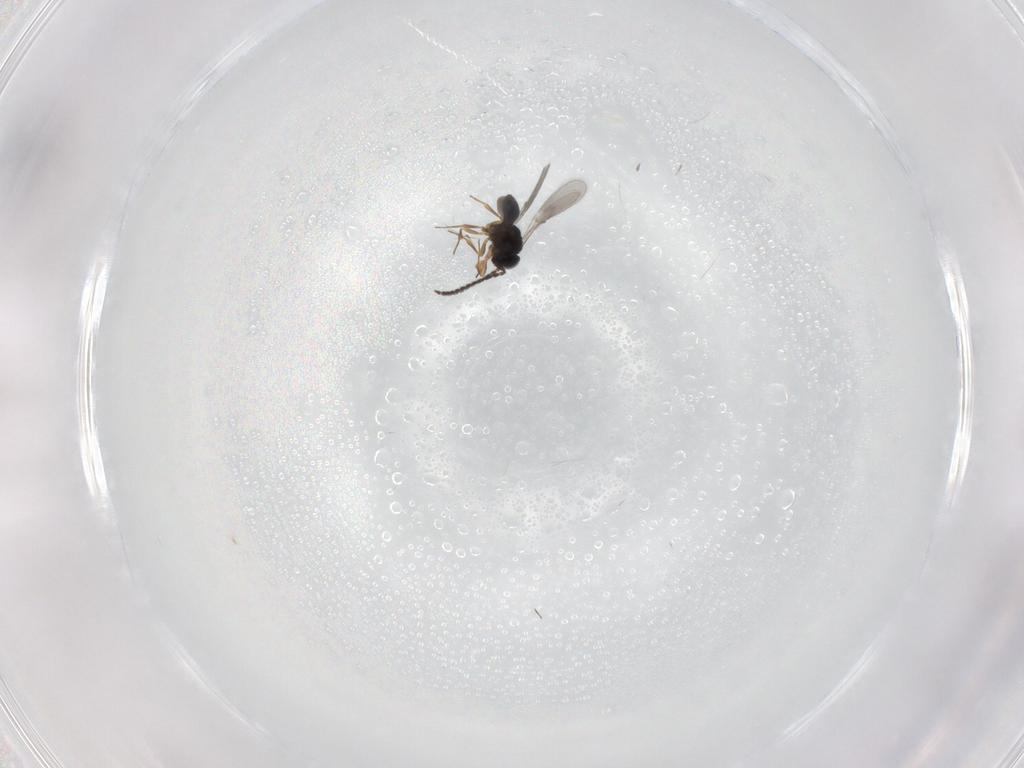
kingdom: Animalia
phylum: Arthropoda
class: Insecta
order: Hymenoptera
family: Scelionidae
